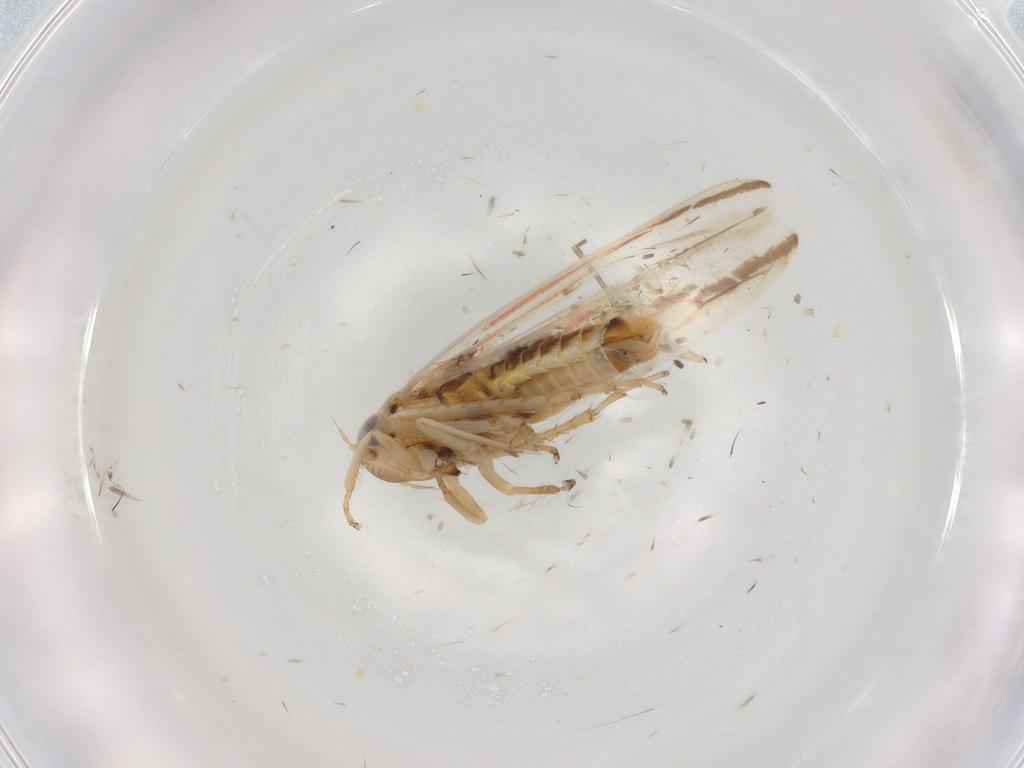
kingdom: Animalia
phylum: Arthropoda
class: Insecta
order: Hemiptera
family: Cicadellidae
